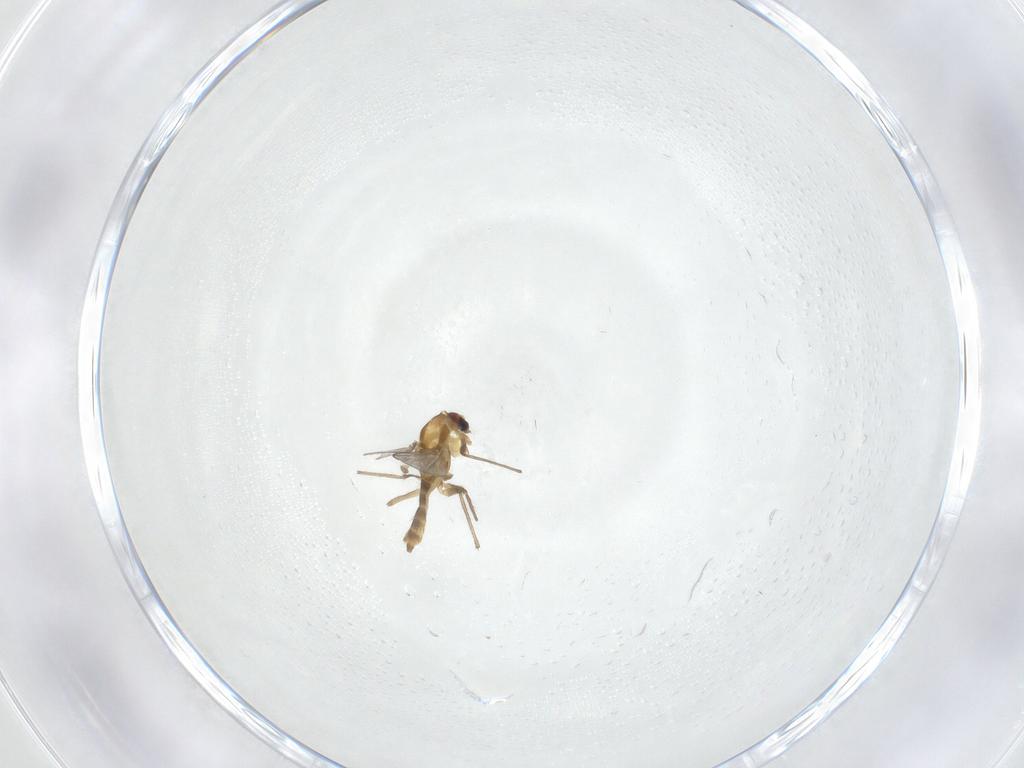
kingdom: Animalia
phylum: Arthropoda
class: Insecta
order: Diptera
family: Chironomidae
